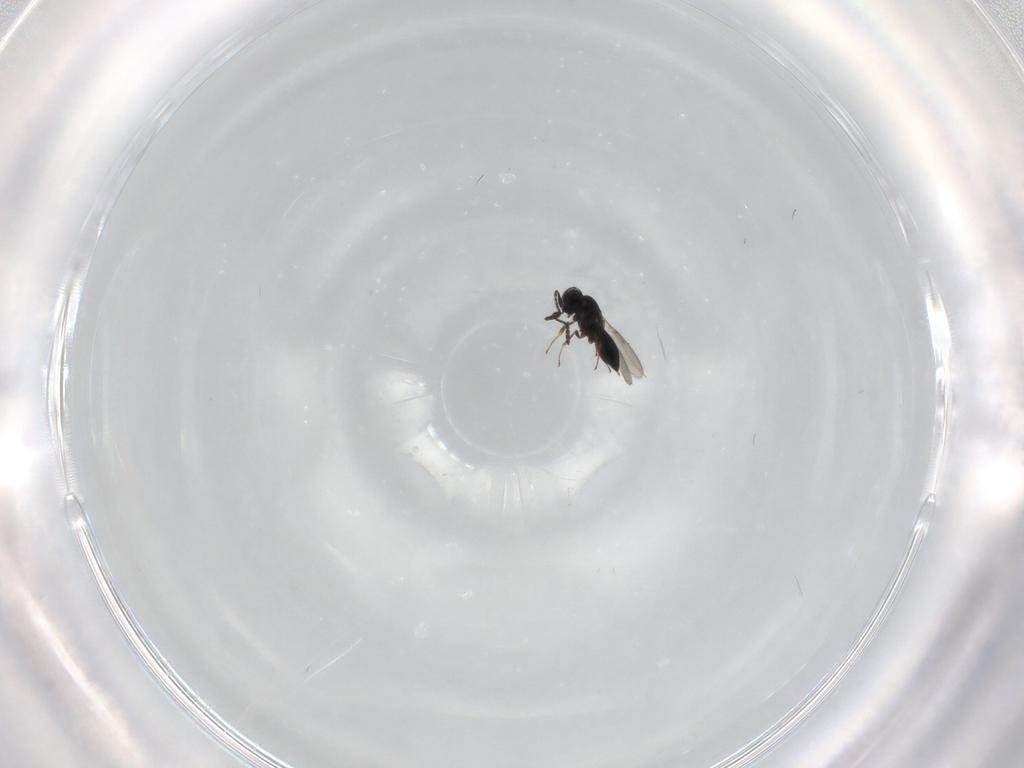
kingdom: Animalia
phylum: Arthropoda
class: Insecta
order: Hymenoptera
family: Scelionidae
